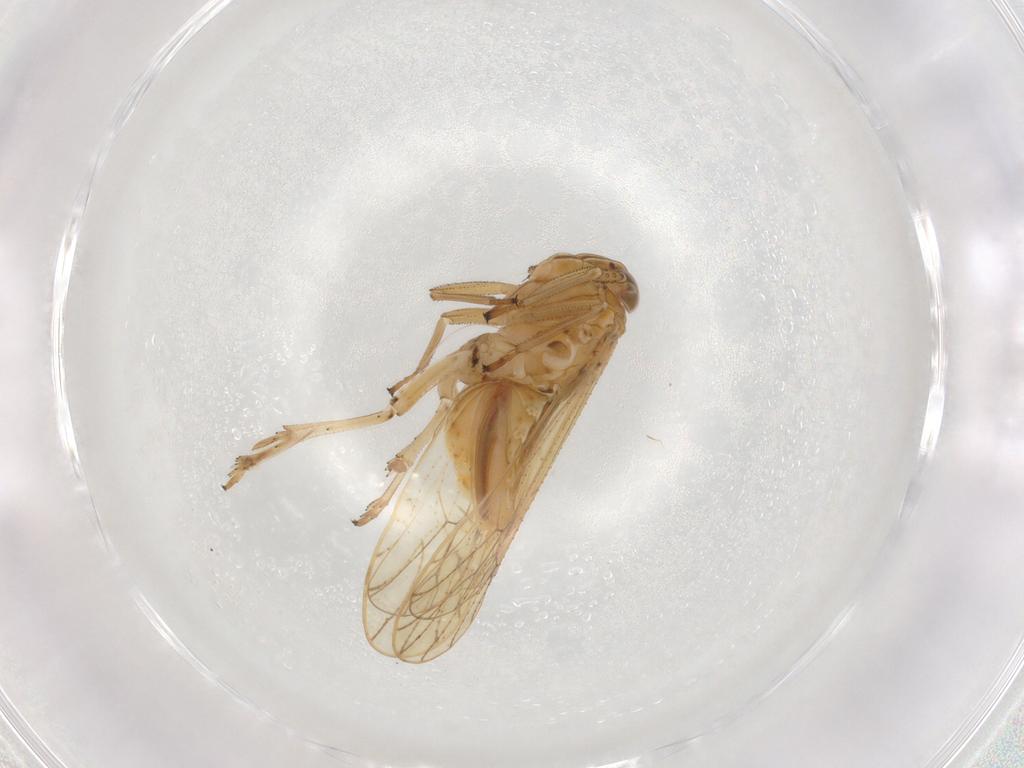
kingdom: Animalia
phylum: Arthropoda
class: Insecta
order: Hemiptera
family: Delphacidae
